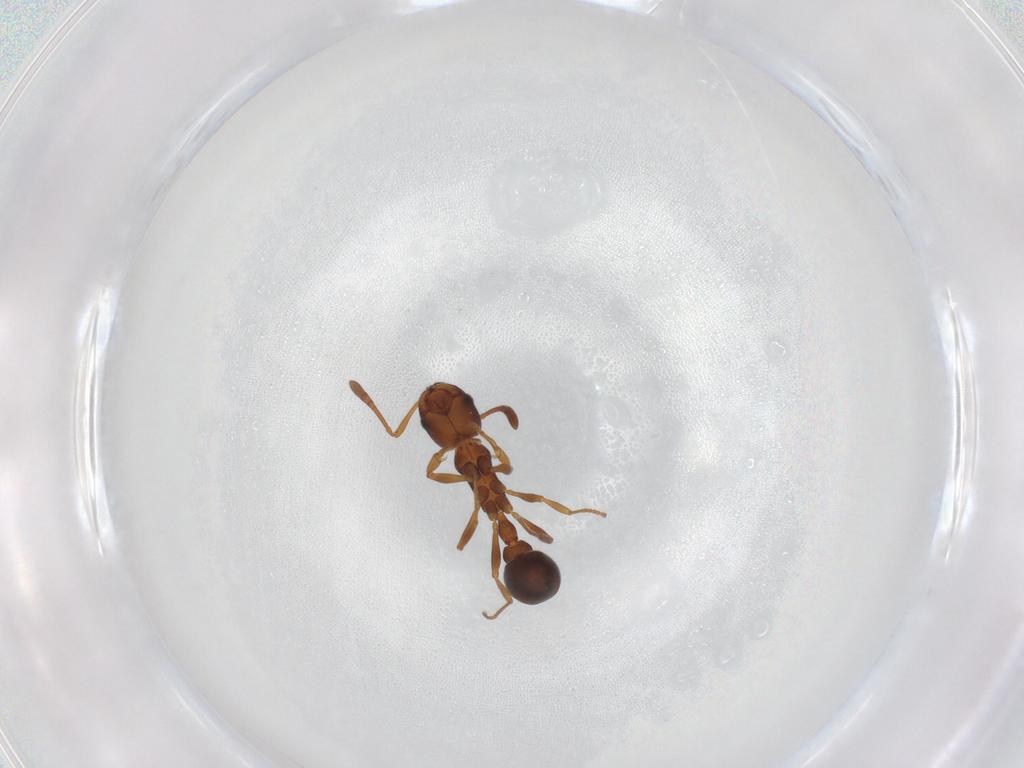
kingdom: Animalia
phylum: Arthropoda
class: Insecta
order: Hymenoptera
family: Formicidae
